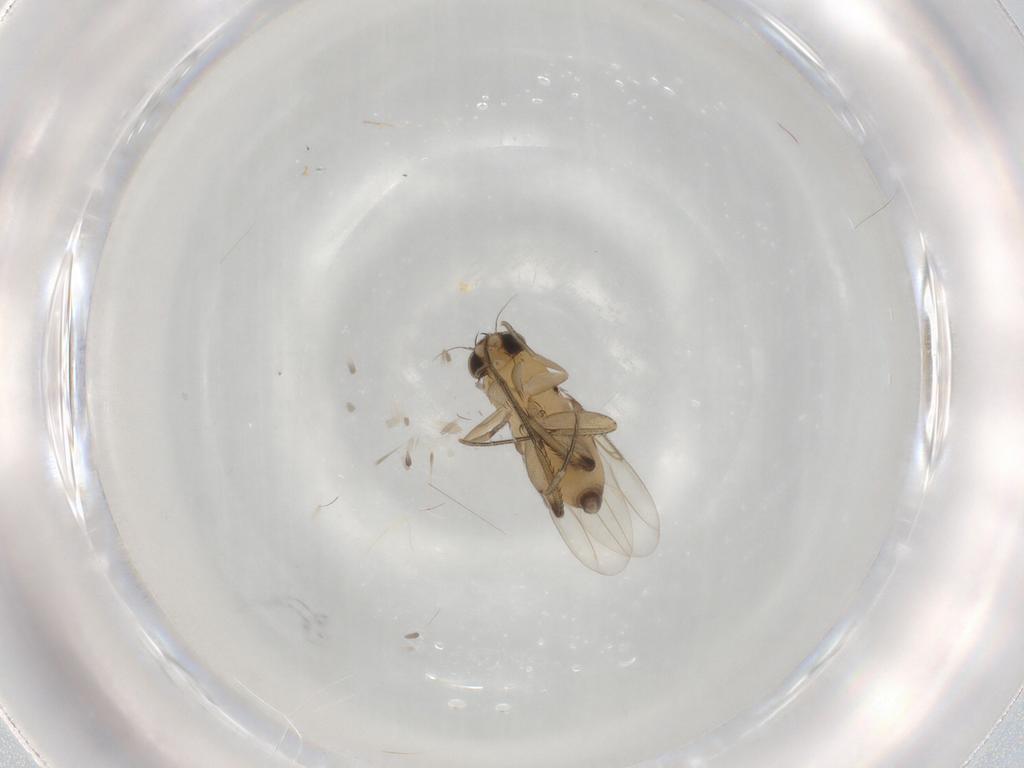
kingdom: Animalia
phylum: Arthropoda
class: Insecta
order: Diptera
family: Phoridae
